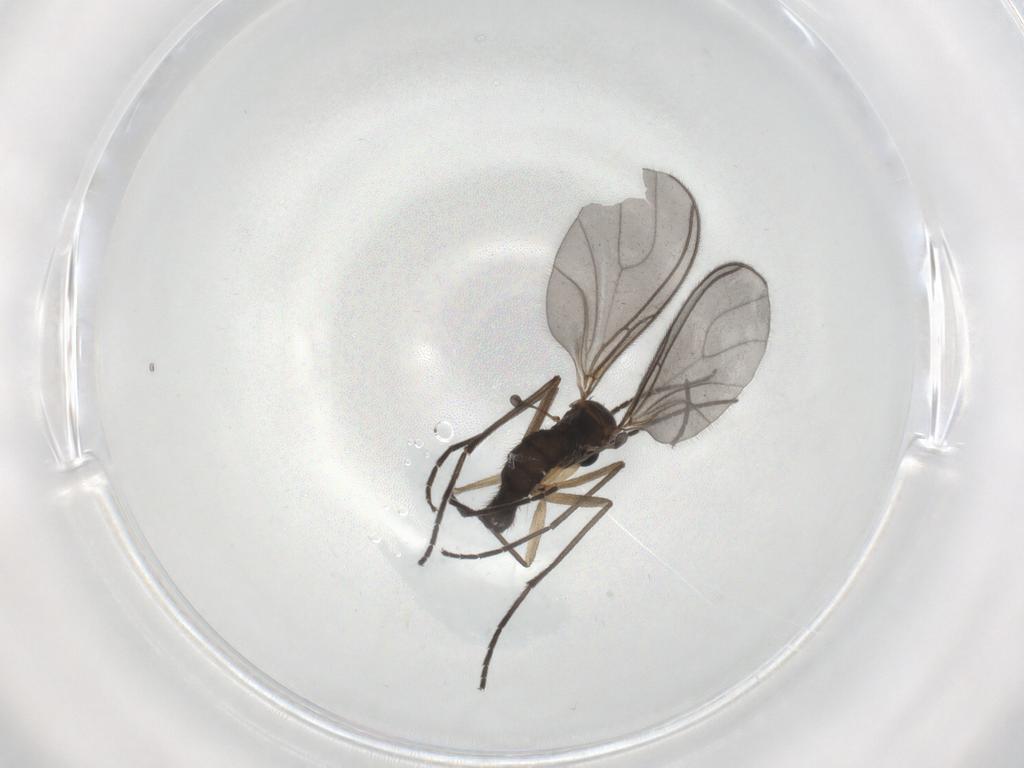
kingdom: Animalia
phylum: Arthropoda
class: Insecta
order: Diptera
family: Sciaridae
